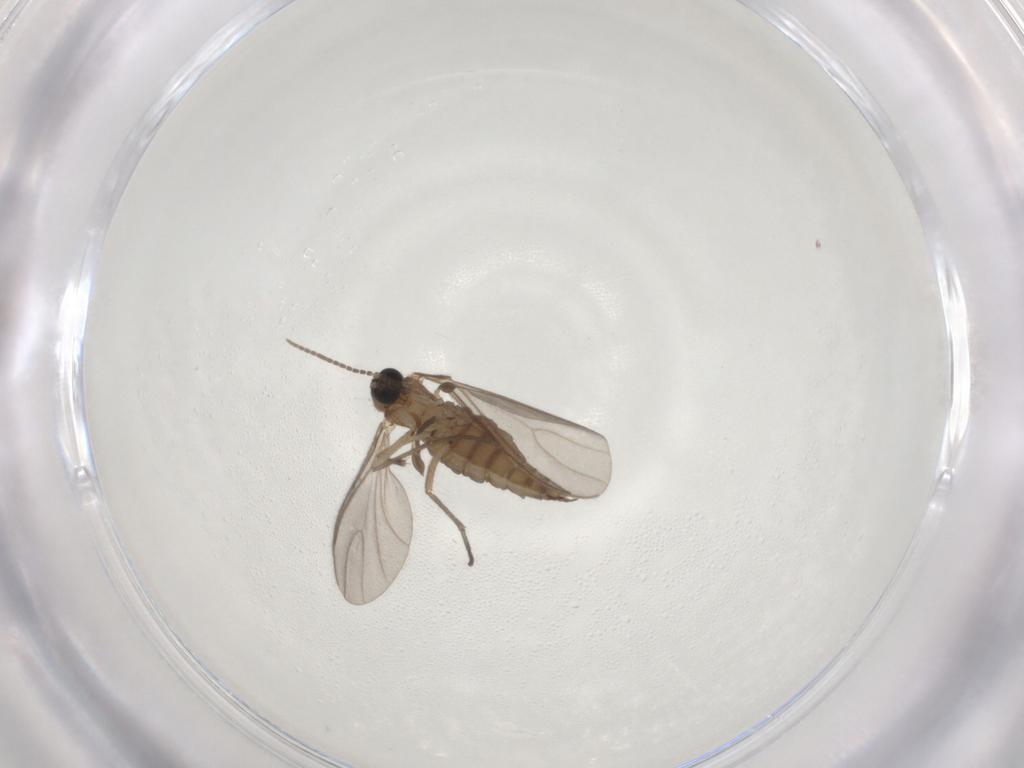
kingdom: Animalia
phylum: Arthropoda
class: Insecta
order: Diptera
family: Sciaridae
